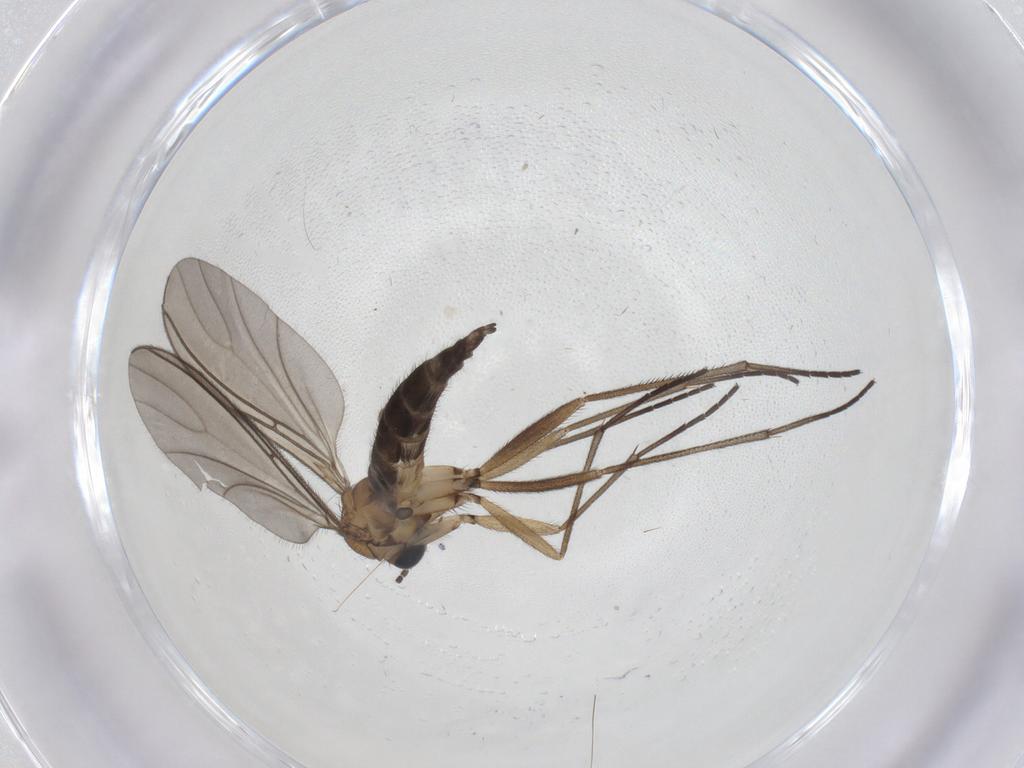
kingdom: Animalia
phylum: Arthropoda
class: Insecta
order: Diptera
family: Sciaridae
